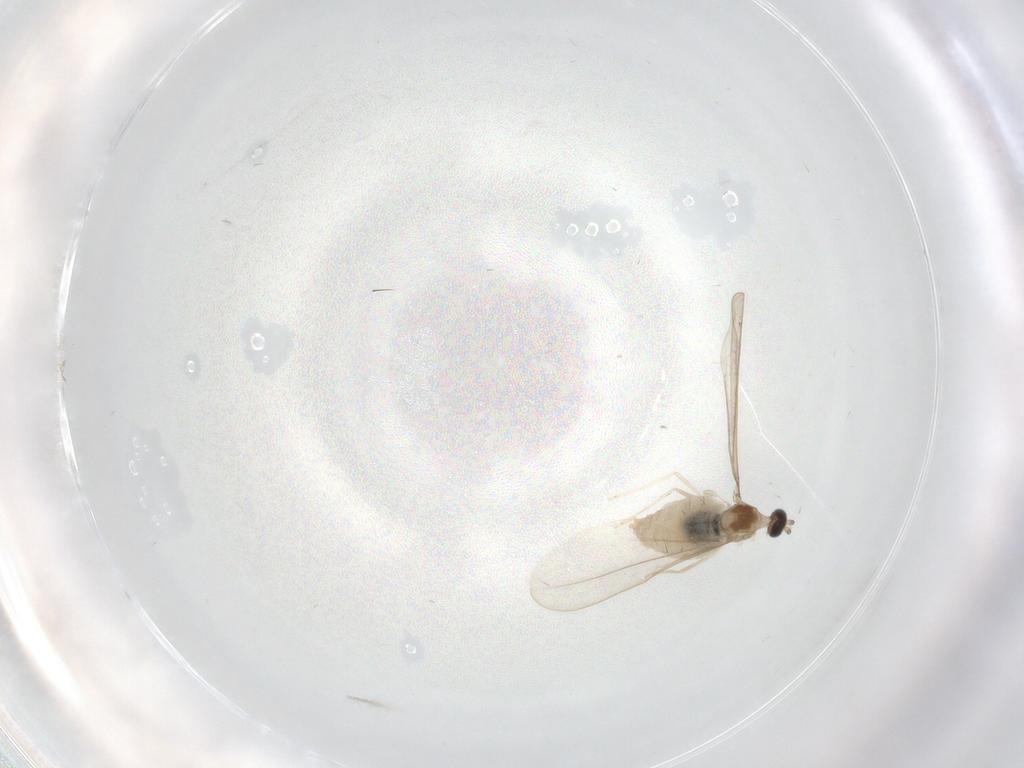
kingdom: Animalia
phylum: Arthropoda
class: Insecta
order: Diptera
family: Cecidomyiidae
